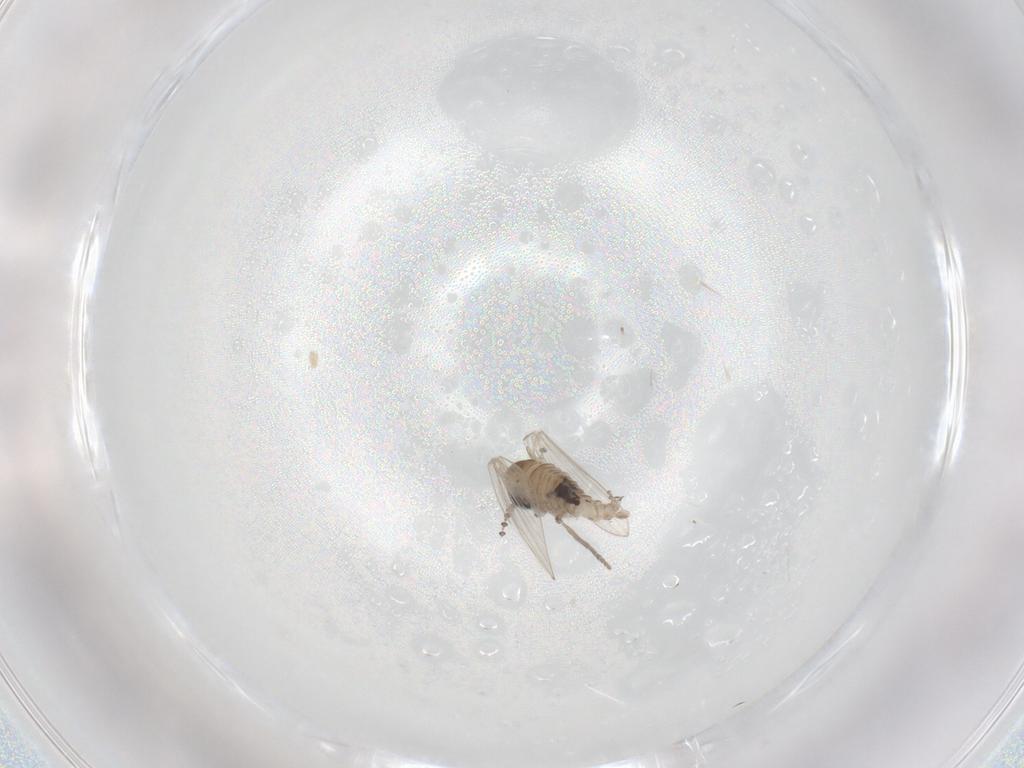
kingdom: Animalia
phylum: Arthropoda
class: Insecta
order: Diptera
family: Psychodidae
